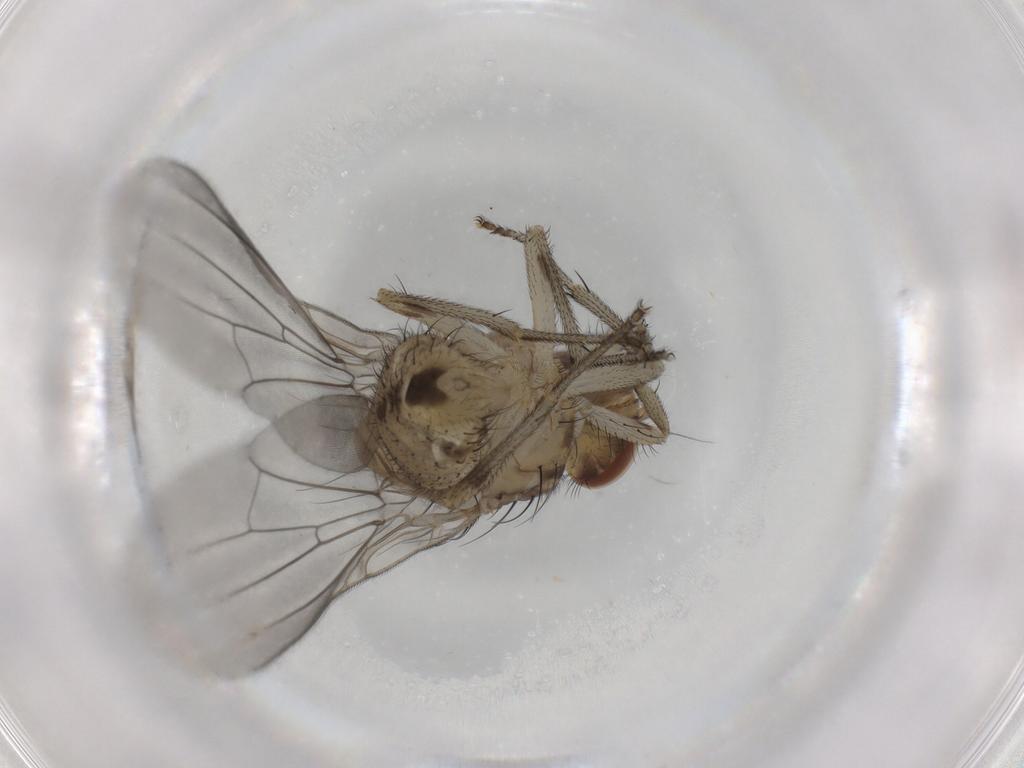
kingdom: Animalia
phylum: Arthropoda
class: Insecta
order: Diptera
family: Lauxaniidae
